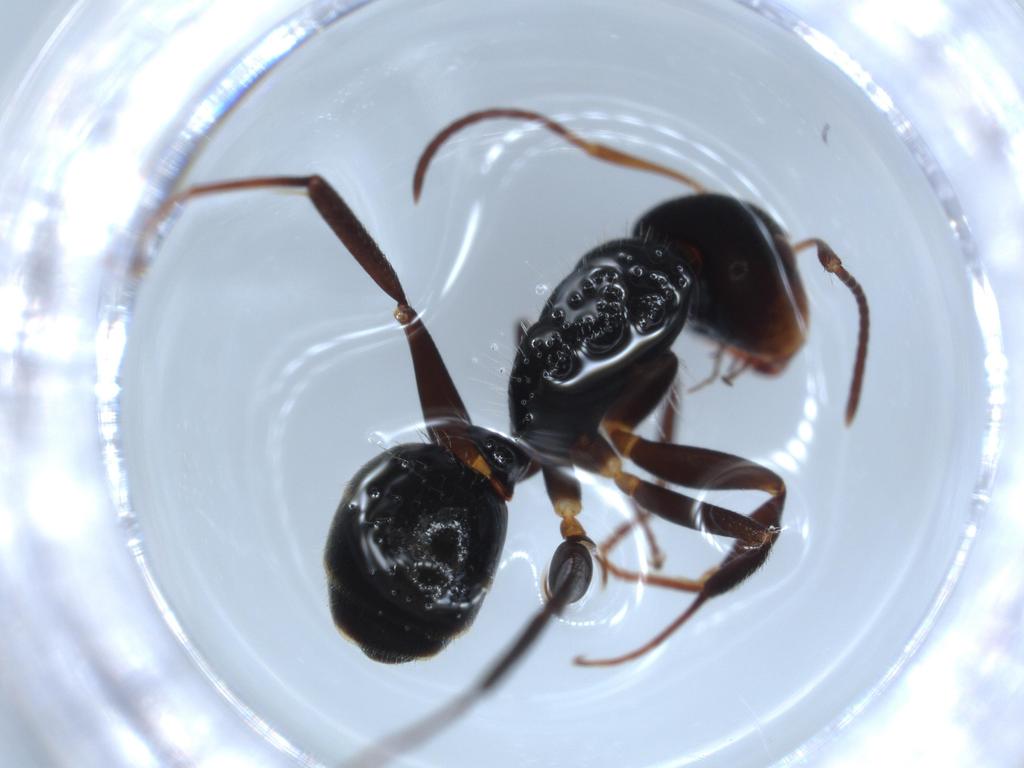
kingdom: Animalia
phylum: Arthropoda
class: Insecta
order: Hymenoptera
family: Formicidae
